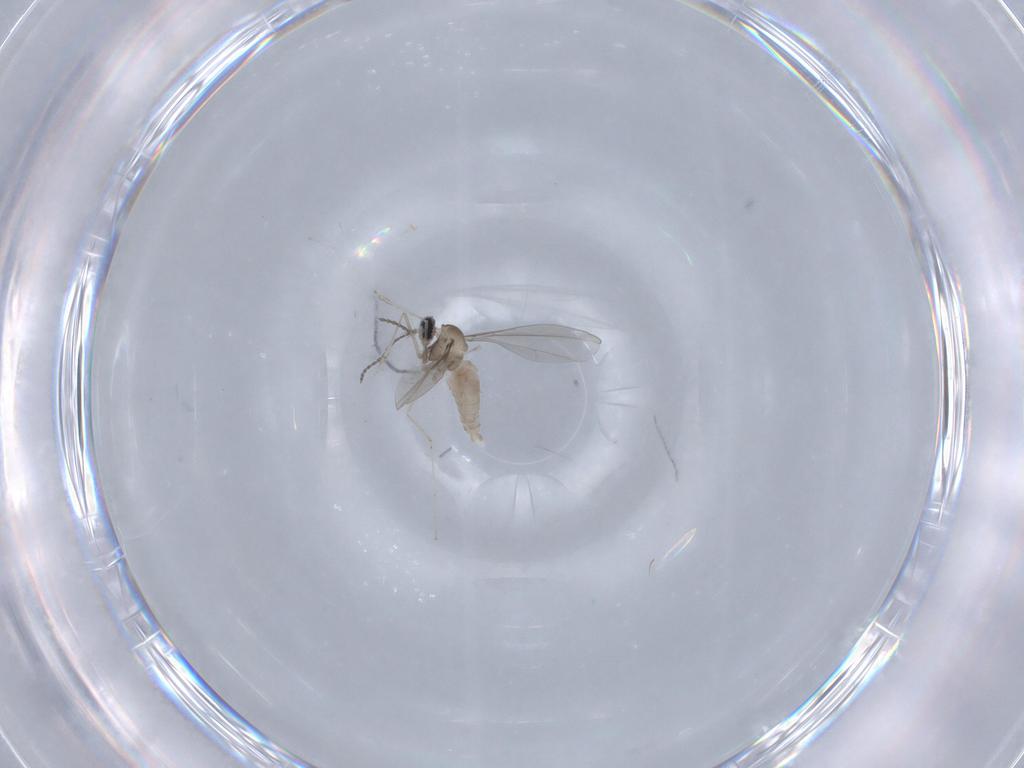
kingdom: Animalia
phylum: Arthropoda
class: Insecta
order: Diptera
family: Cecidomyiidae
